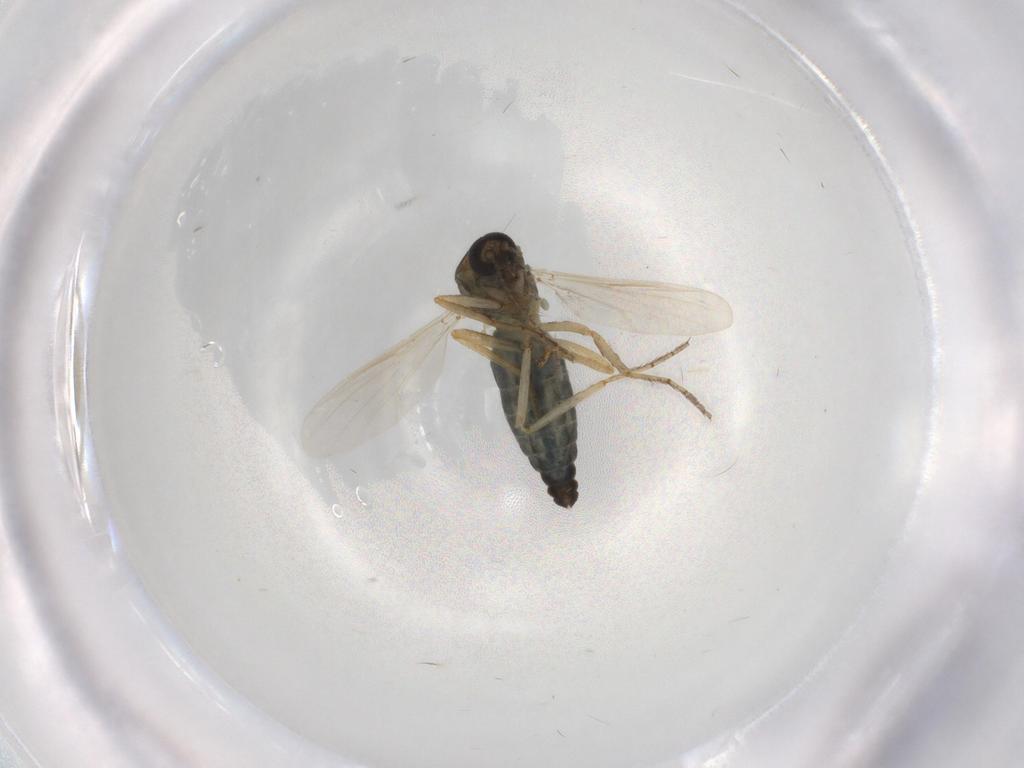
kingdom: Animalia
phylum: Arthropoda
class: Insecta
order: Diptera
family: Ceratopogonidae
